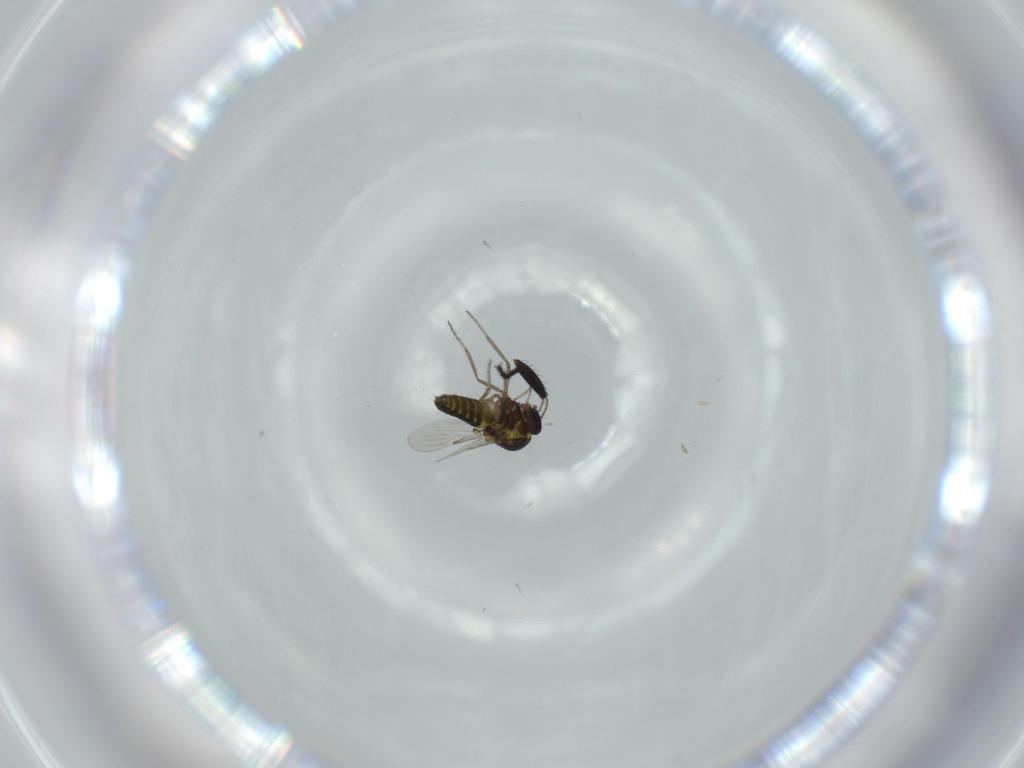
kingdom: Animalia
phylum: Arthropoda
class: Insecta
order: Diptera
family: Milichiidae
